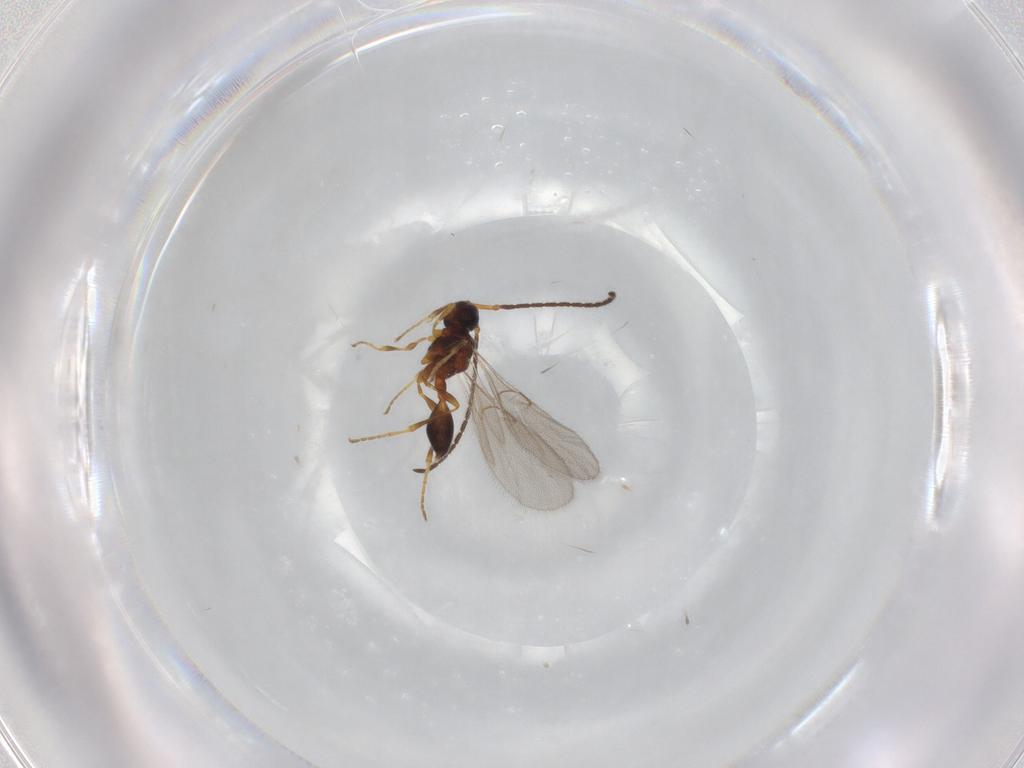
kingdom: Animalia
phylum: Arthropoda
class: Insecta
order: Hymenoptera
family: Diapriidae
